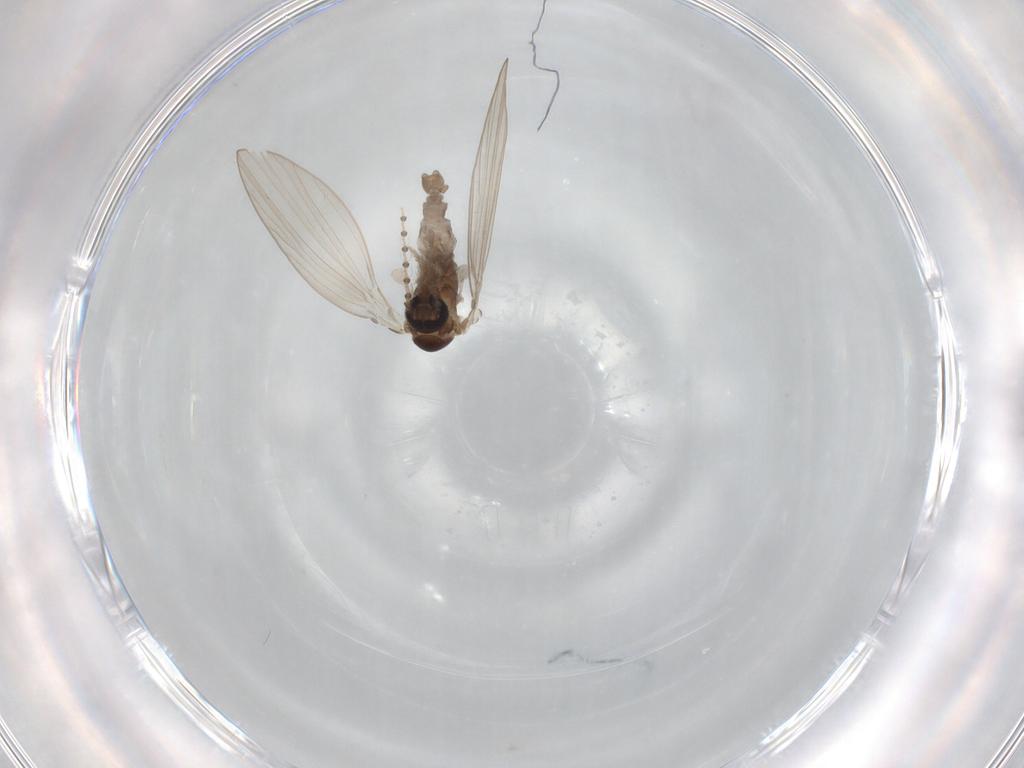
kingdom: Animalia
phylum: Arthropoda
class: Insecta
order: Diptera
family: Psychodidae
